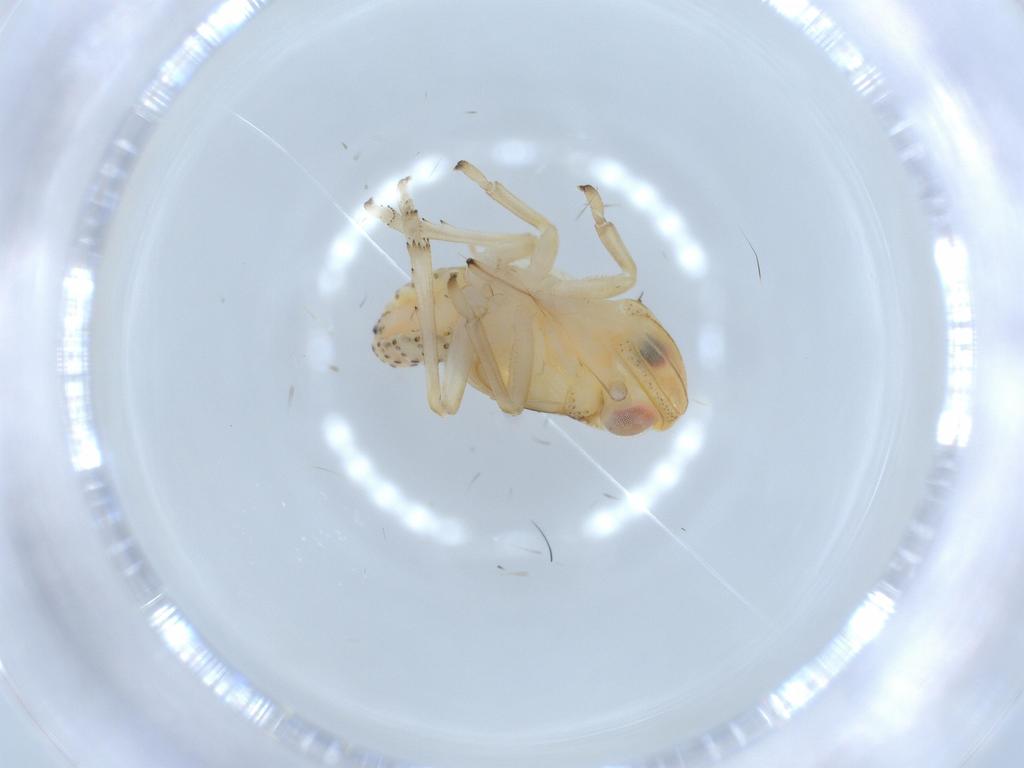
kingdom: Animalia
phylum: Arthropoda
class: Insecta
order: Hemiptera
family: Tropiduchidae
